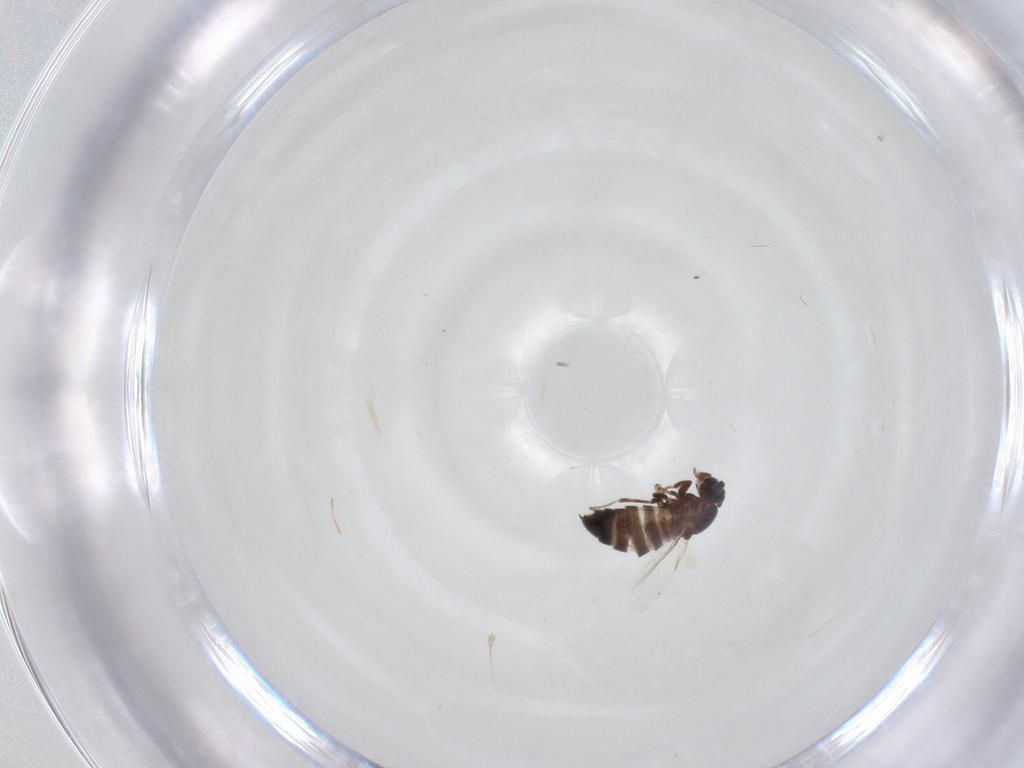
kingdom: Animalia
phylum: Arthropoda
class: Insecta
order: Diptera
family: Scatopsidae
